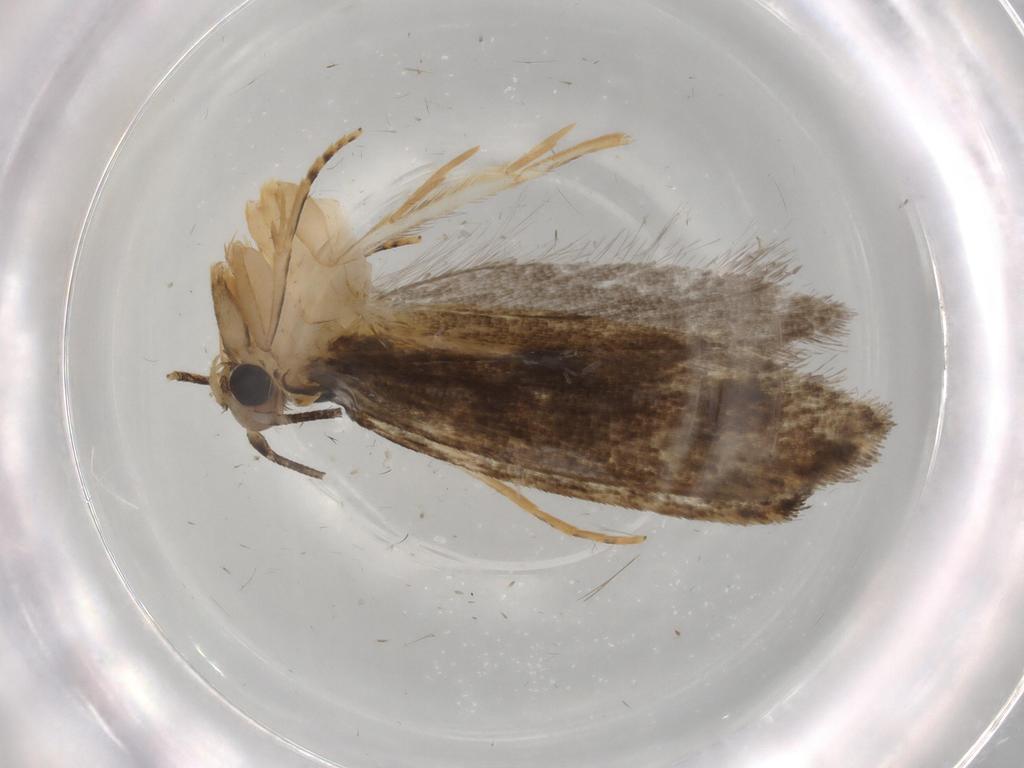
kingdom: Animalia
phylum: Arthropoda
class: Insecta
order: Lepidoptera
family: Tineidae
